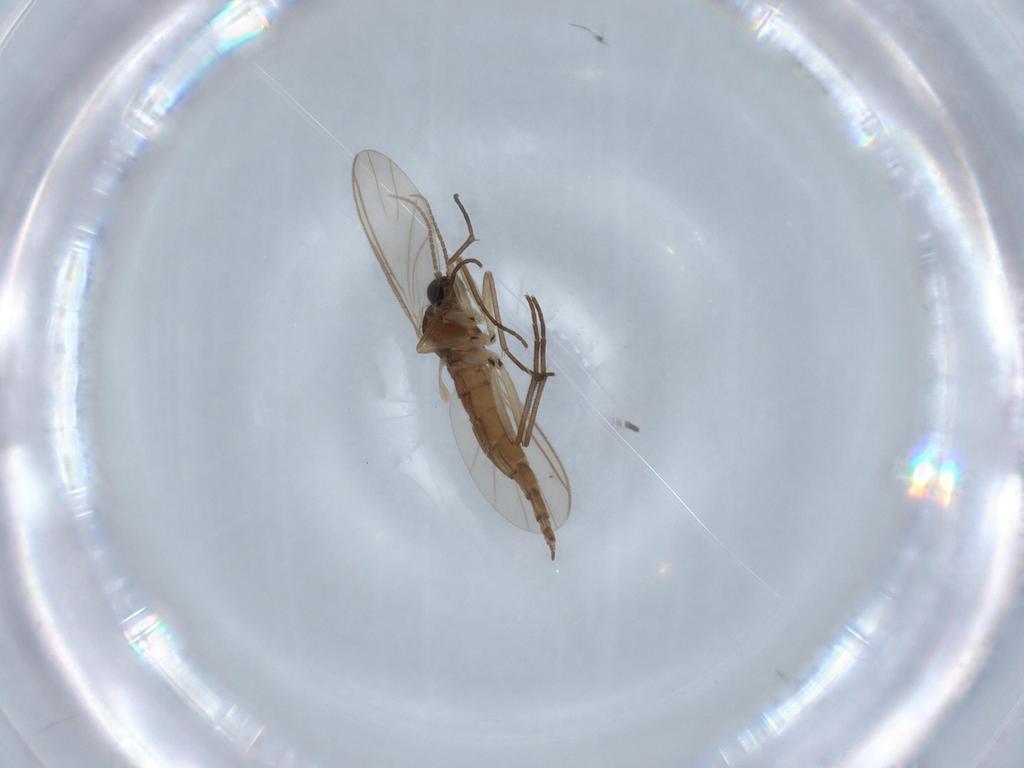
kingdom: Animalia
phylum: Arthropoda
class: Insecta
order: Diptera
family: Sciaridae
